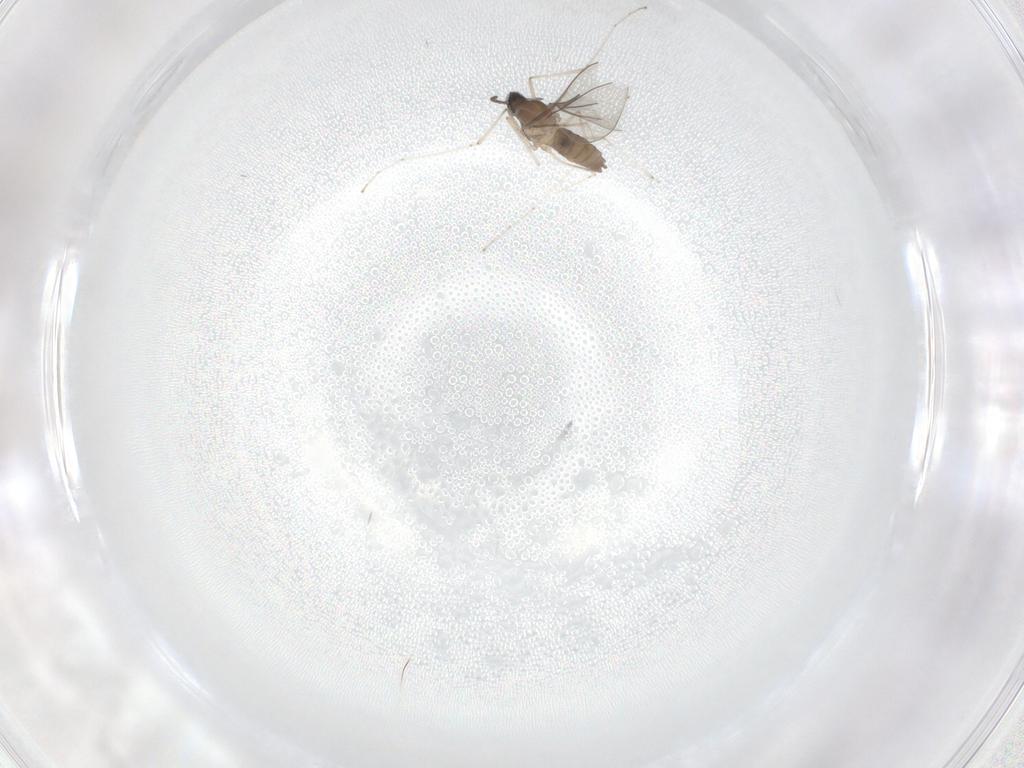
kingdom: Animalia
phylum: Arthropoda
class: Insecta
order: Diptera
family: Cecidomyiidae
